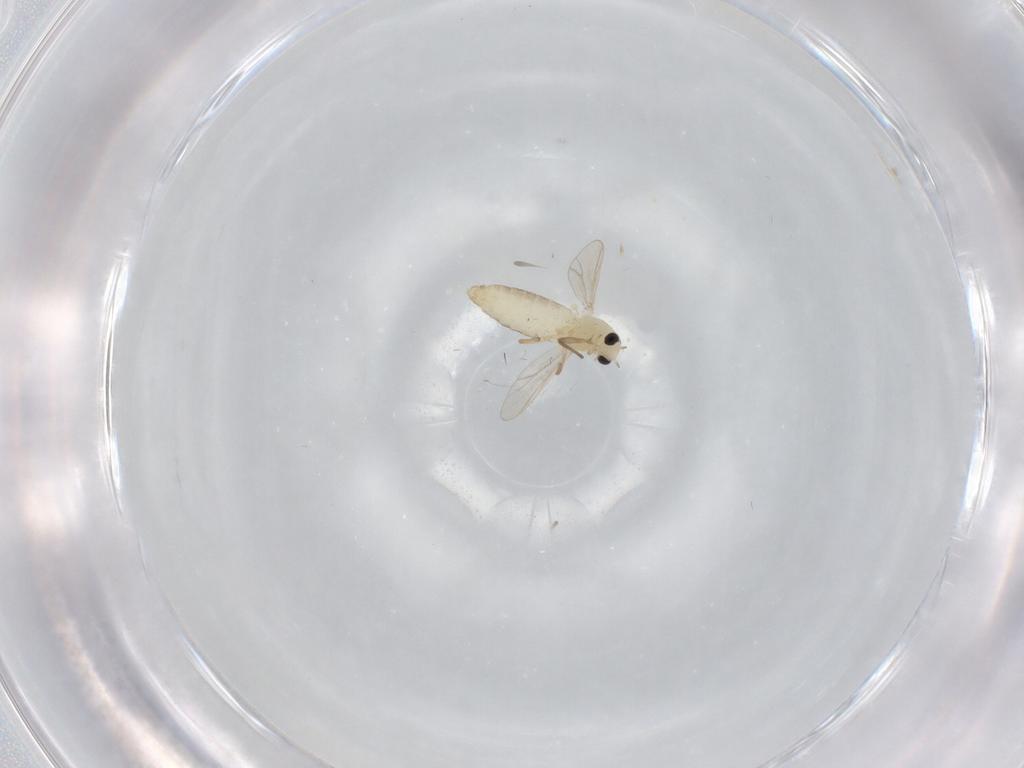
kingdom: Animalia
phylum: Arthropoda
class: Insecta
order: Diptera
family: Chironomidae
